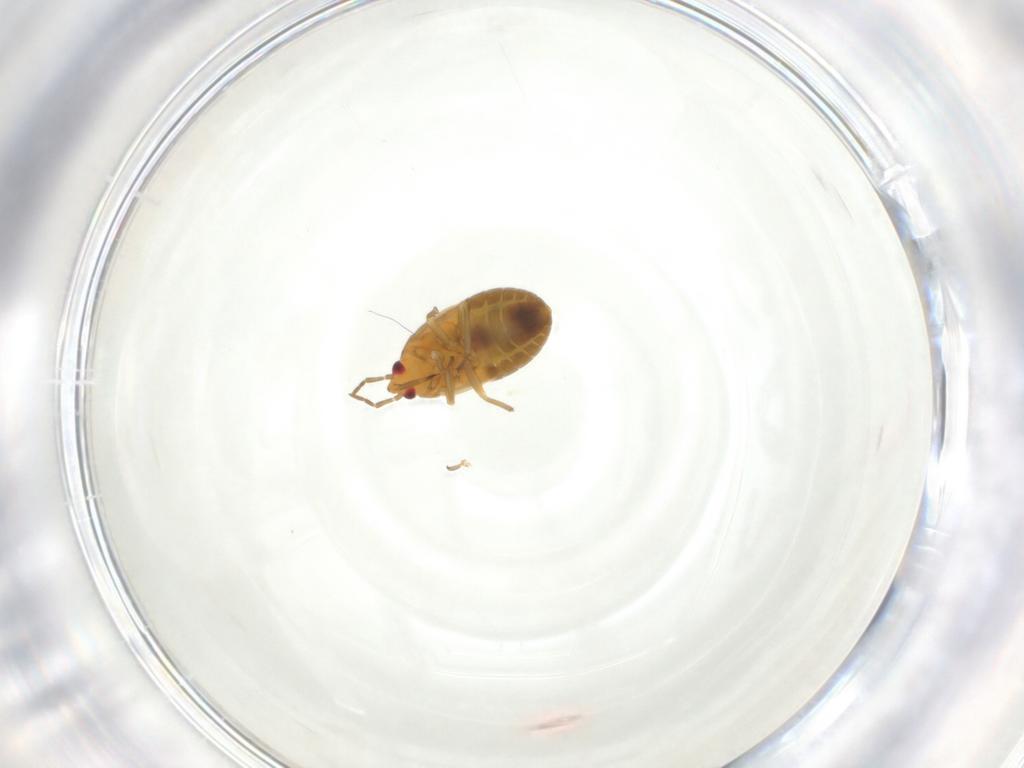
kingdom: Animalia
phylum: Arthropoda
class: Insecta
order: Hemiptera
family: Anthocoridae
